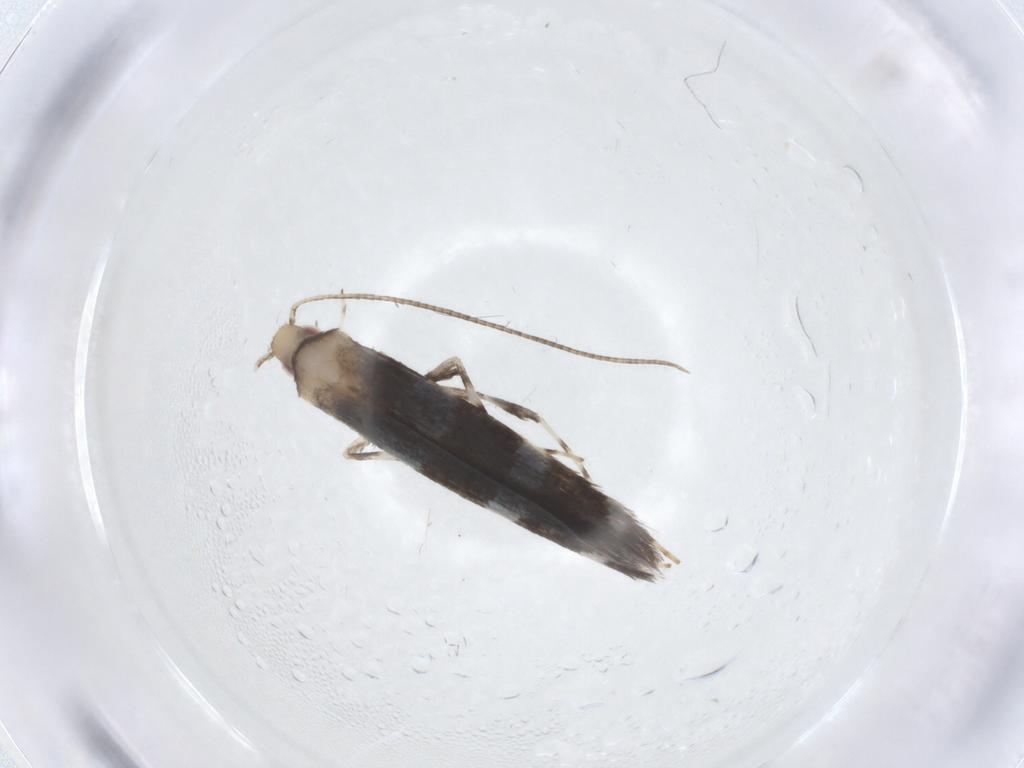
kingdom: Animalia
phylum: Arthropoda
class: Insecta
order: Lepidoptera
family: Gracillariidae
